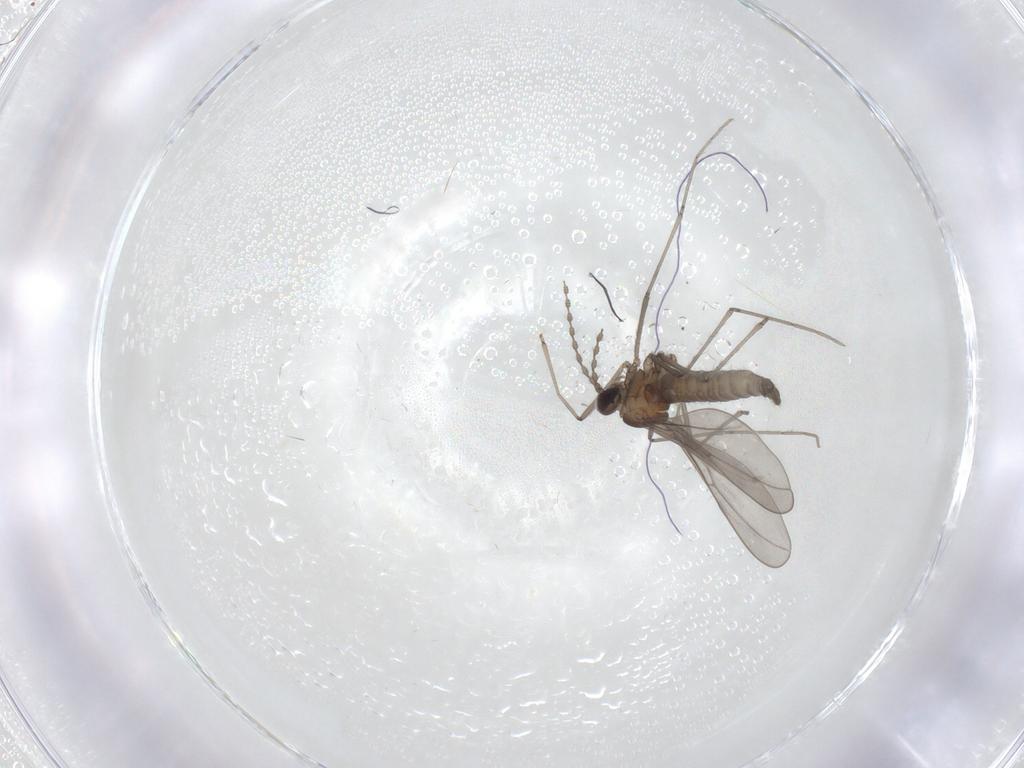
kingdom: Animalia
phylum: Arthropoda
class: Insecta
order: Diptera
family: Cecidomyiidae
